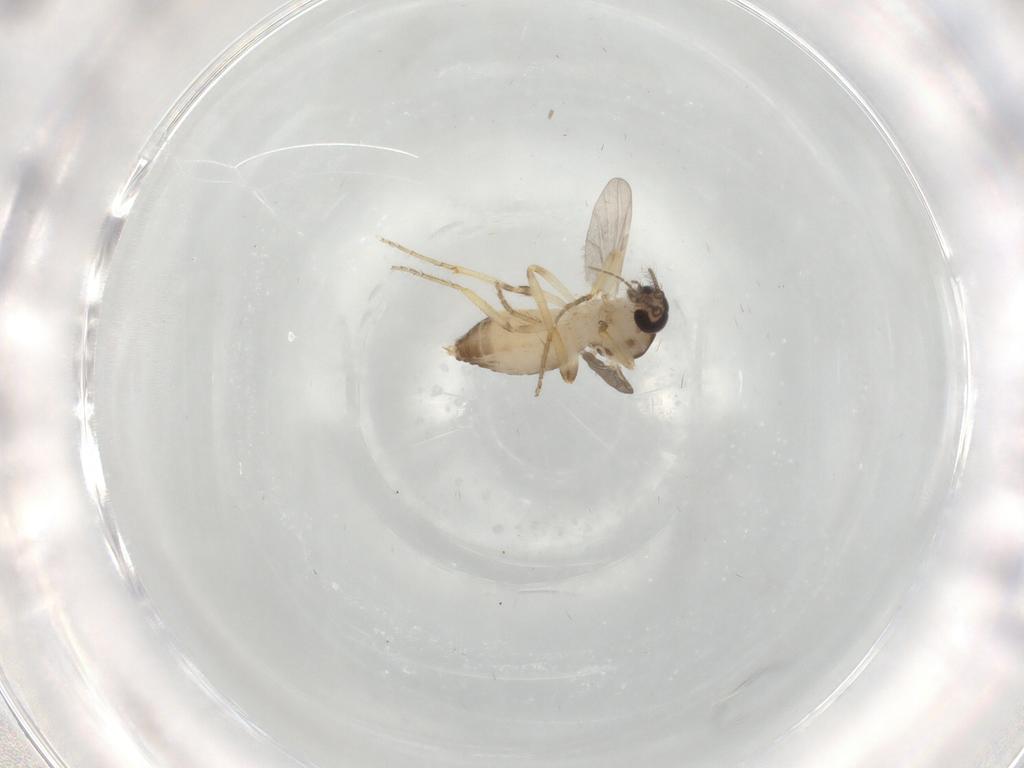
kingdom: Animalia
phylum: Arthropoda
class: Insecta
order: Diptera
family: Ceratopogonidae
